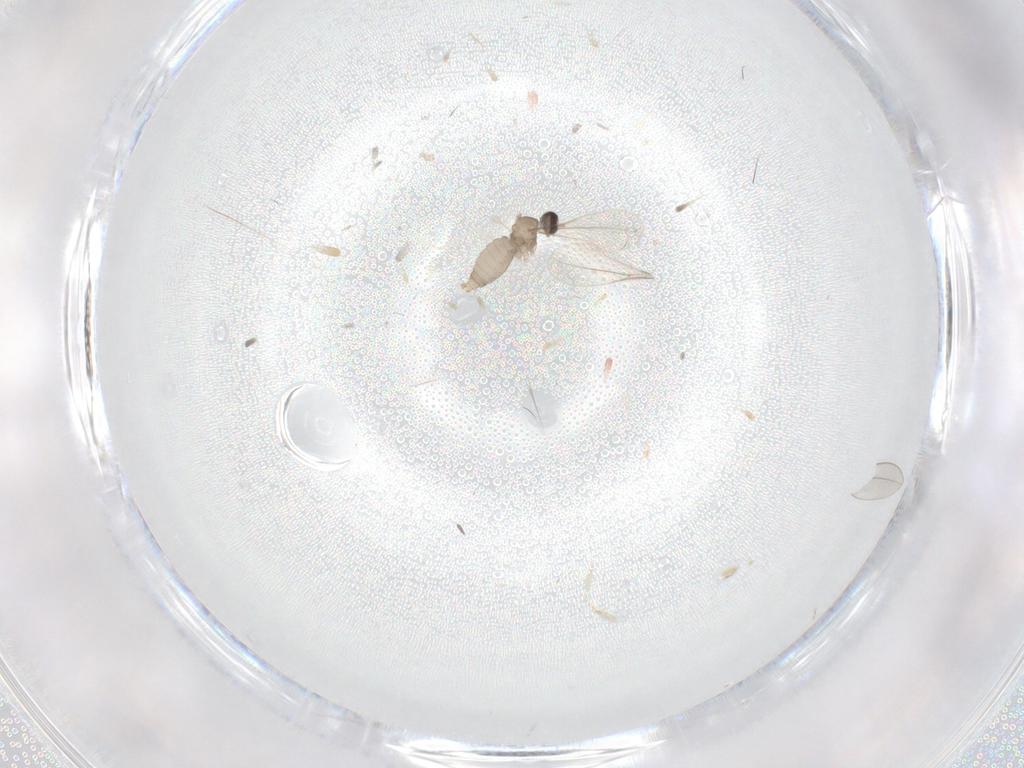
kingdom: Animalia
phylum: Arthropoda
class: Insecta
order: Diptera
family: Cecidomyiidae
